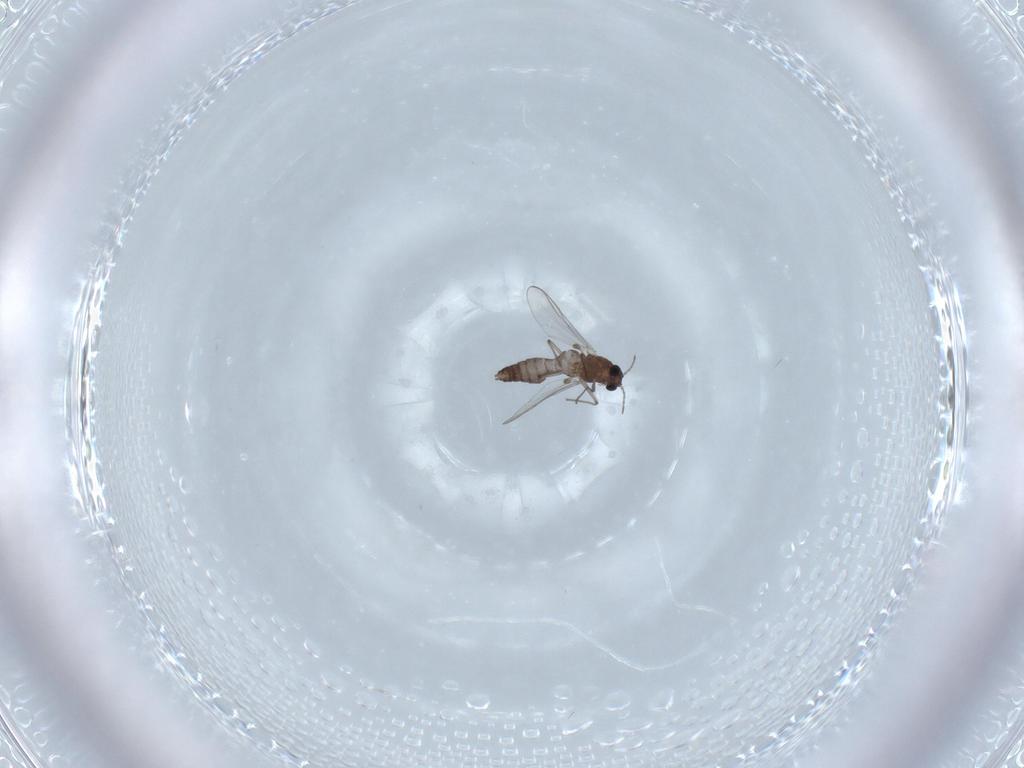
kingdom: Animalia
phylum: Arthropoda
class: Insecta
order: Diptera
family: Chironomidae
